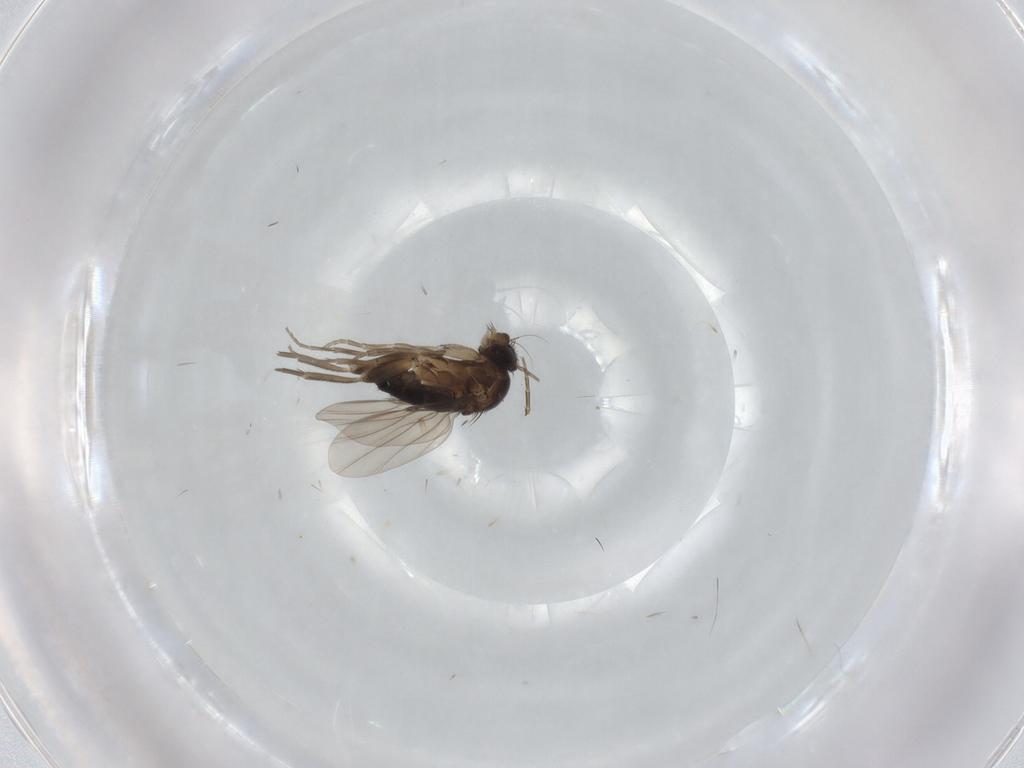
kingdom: Animalia
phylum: Arthropoda
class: Insecta
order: Diptera
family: Phoridae
